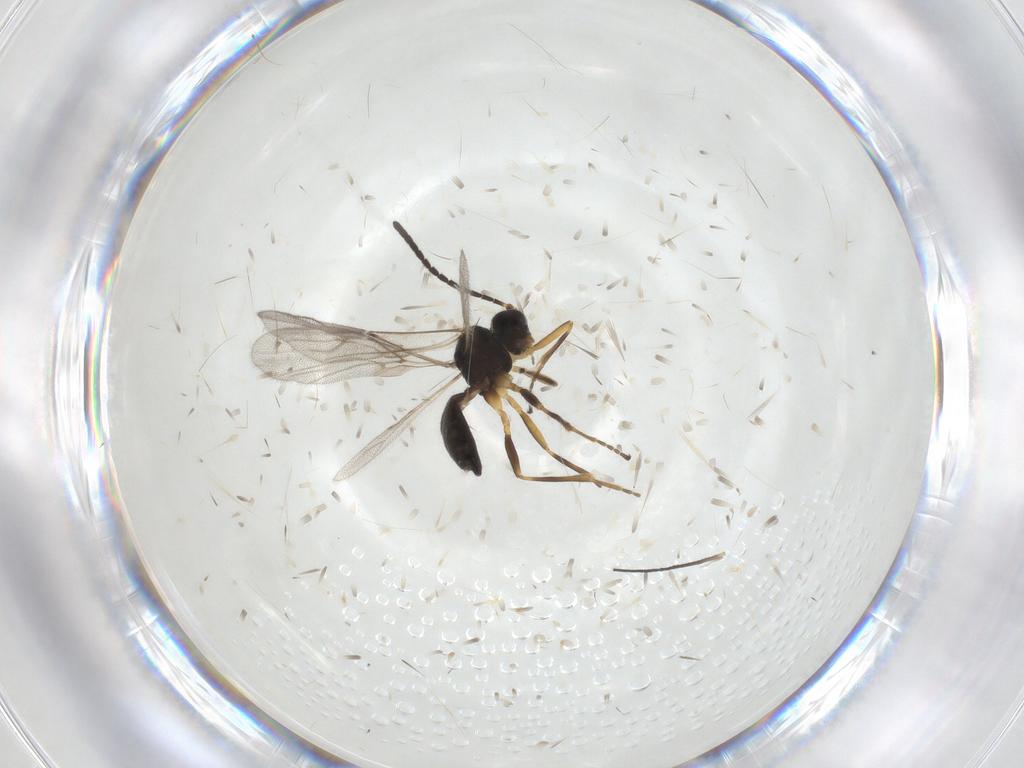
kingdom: Animalia
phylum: Arthropoda
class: Insecta
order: Hymenoptera
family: Braconidae
